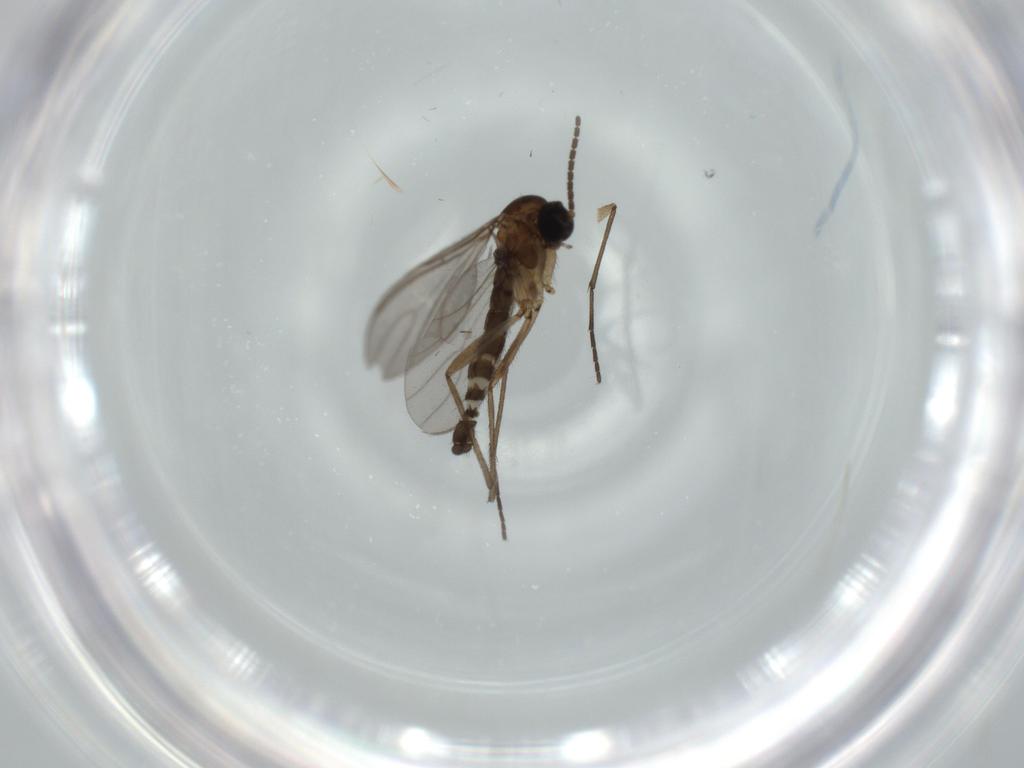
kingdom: Animalia
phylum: Arthropoda
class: Insecta
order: Diptera
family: Sciaridae
